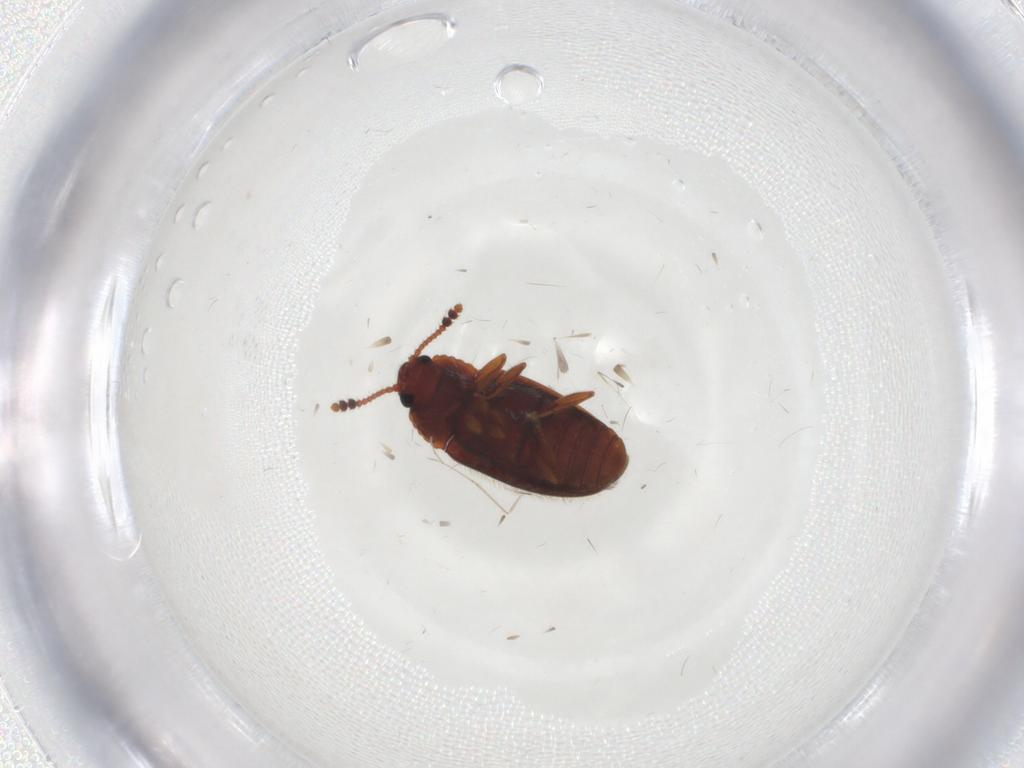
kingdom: Animalia
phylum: Arthropoda
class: Insecta
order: Coleoptera
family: Erotylidae
